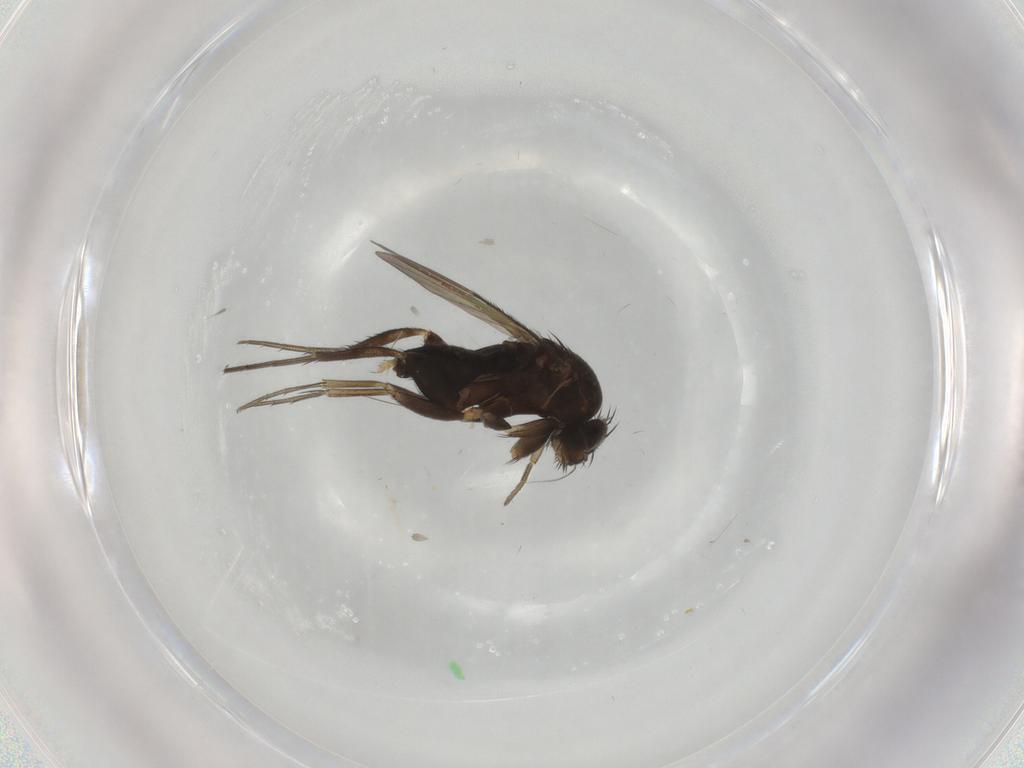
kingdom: Animalia
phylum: Arthropoda
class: Insecta
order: Diptera
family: Phoridae
